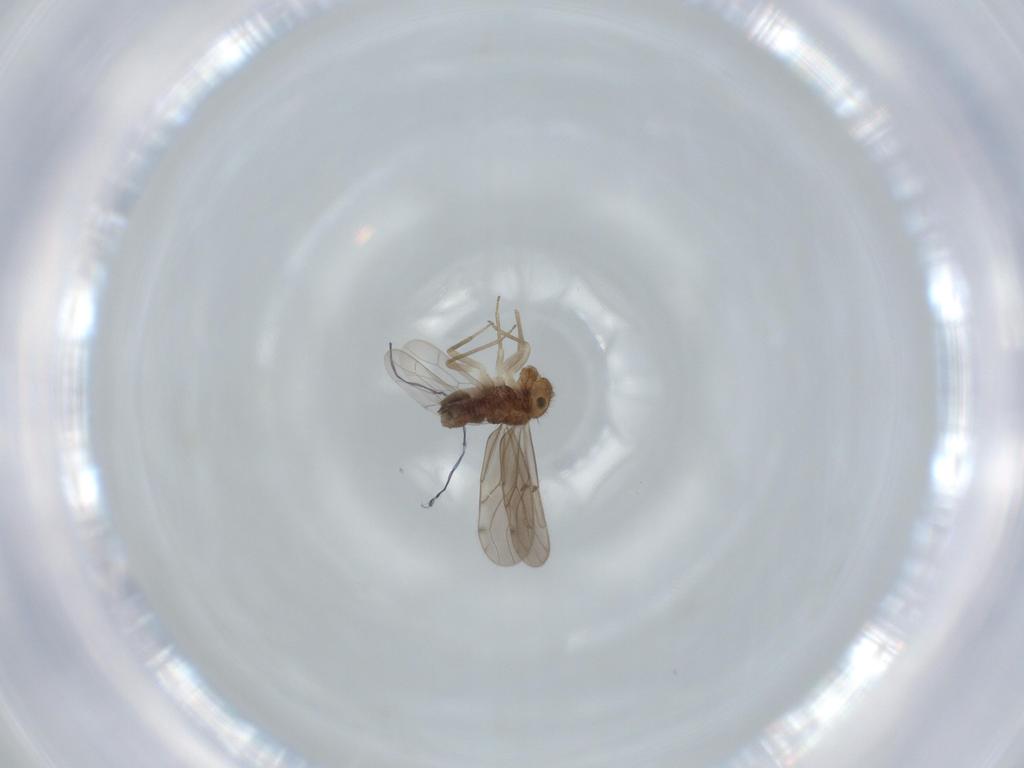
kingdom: Animalia
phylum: Arthropoda
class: Insecta
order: Psocodea
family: Ectopsocidae
